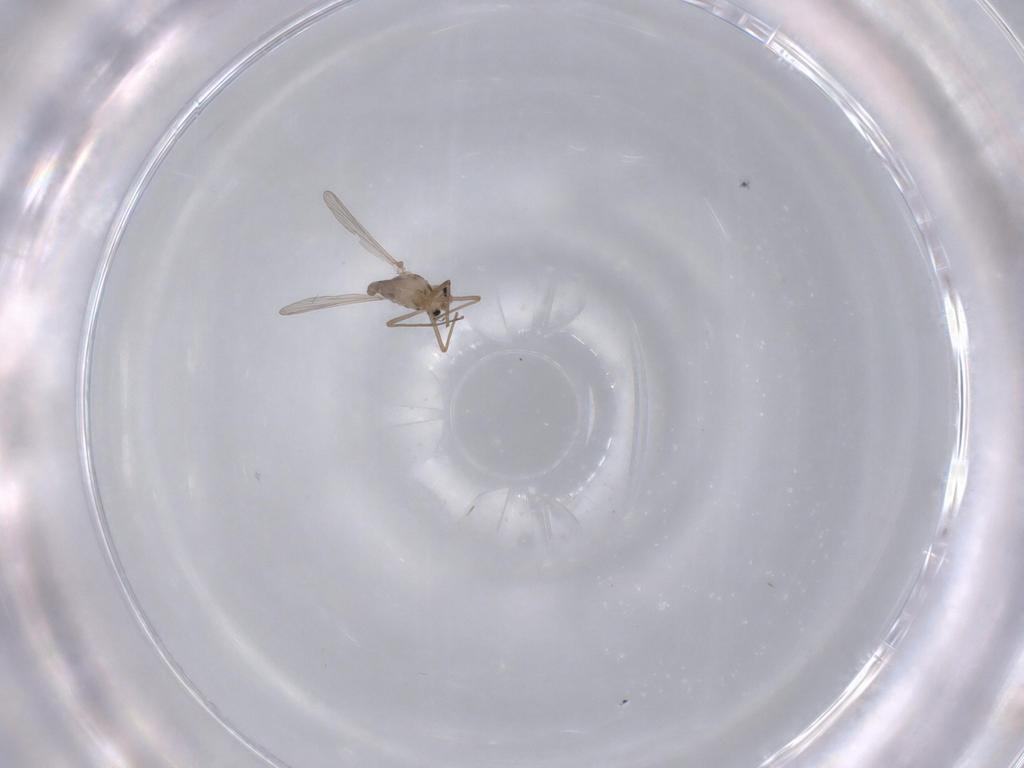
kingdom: Animalia
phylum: Arthropoda
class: Insecta
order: Diptera
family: Chironomidae
